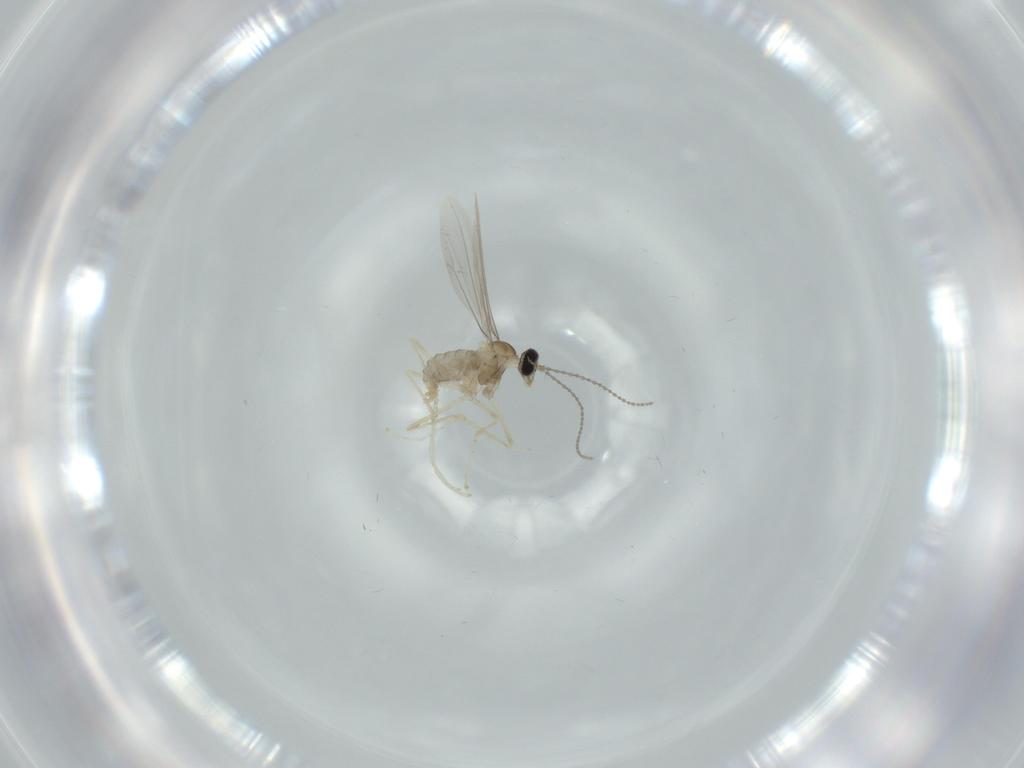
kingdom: Animalia
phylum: Arthropoda
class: Insecta
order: Diptera
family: Cecidomyiidae
